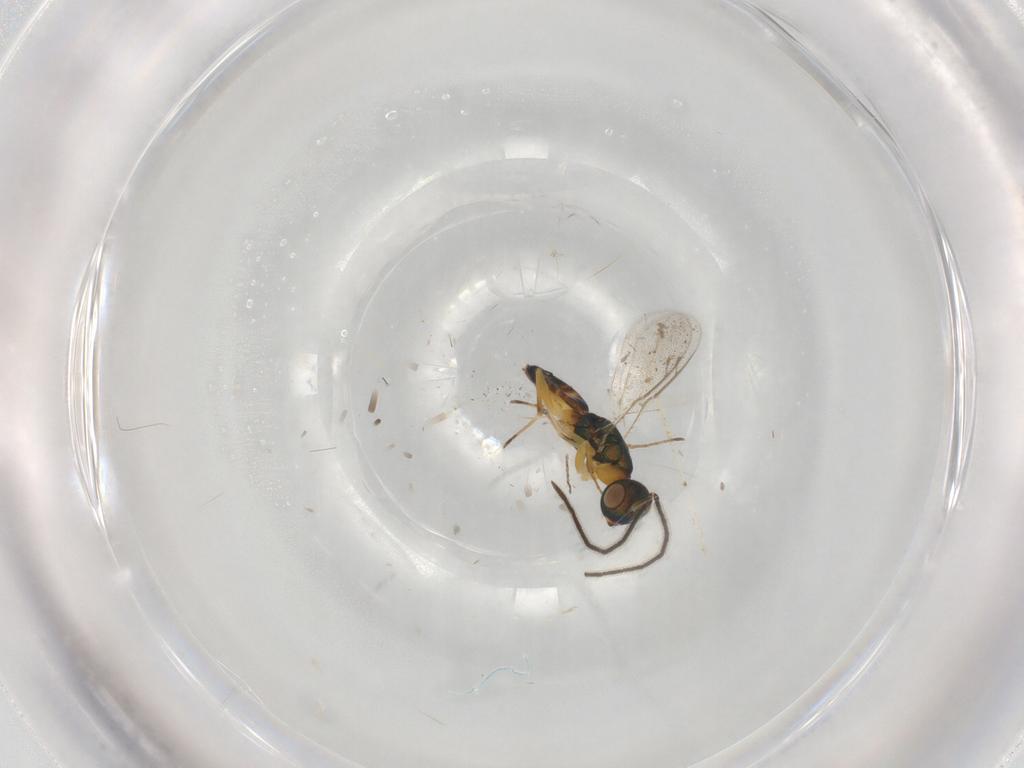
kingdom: Animalia
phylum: Arthropoda
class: Insecta
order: Hymenoptera
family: Eupelmidae
